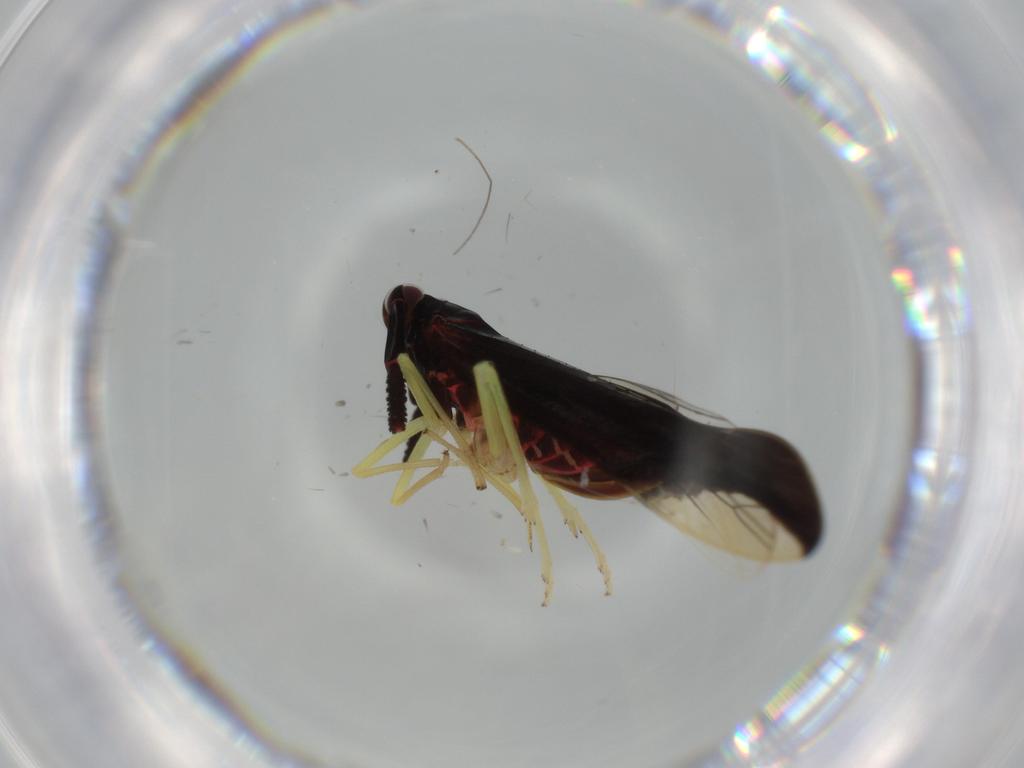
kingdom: Animalia
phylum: Arthropoda
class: Insecta
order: Hemiptera
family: Delphacidae
